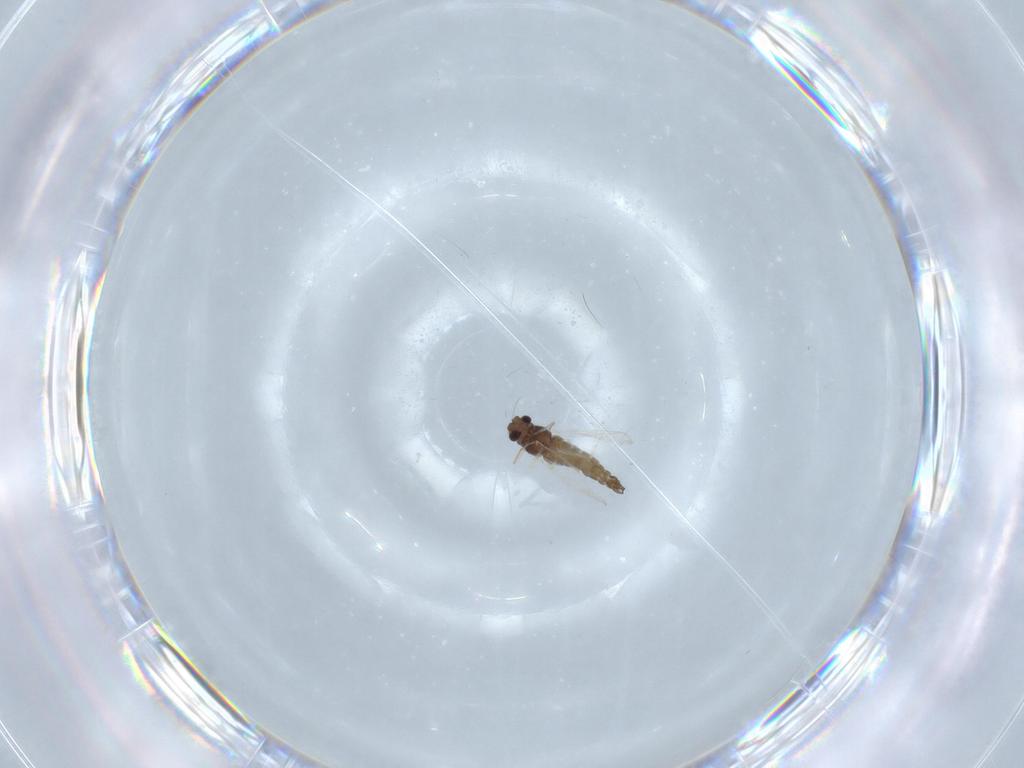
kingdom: Animalia
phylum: Arthropoda
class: Insecta
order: Diptera
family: Chironomidae
